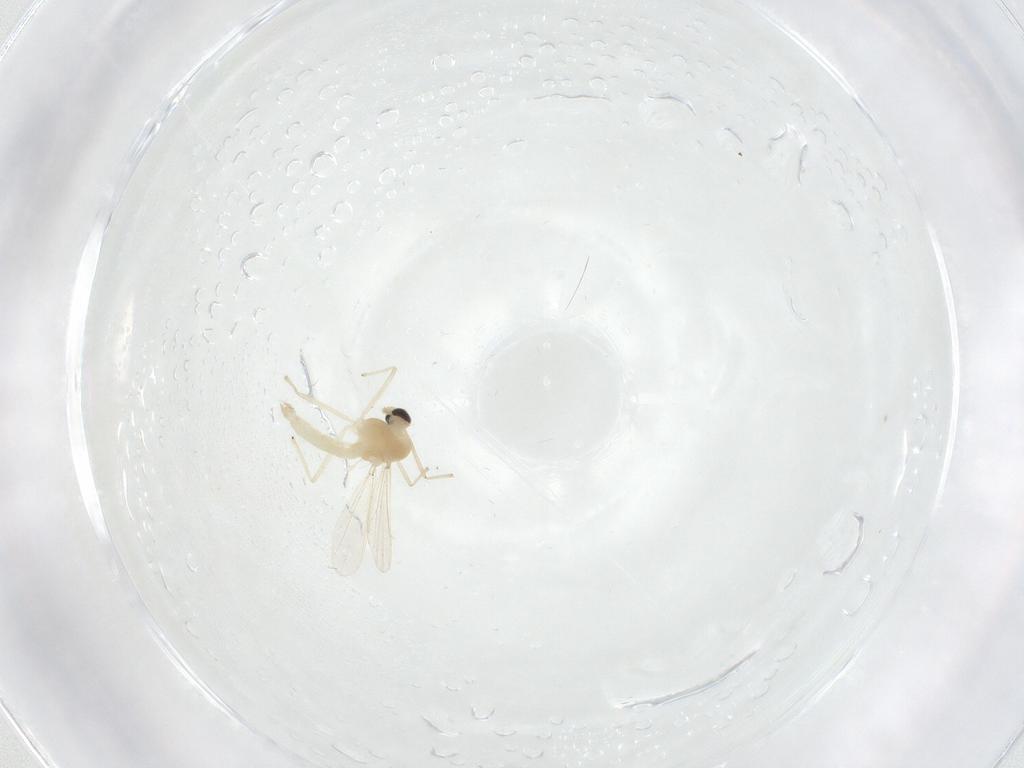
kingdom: Animalia
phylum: Arthropoda
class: Insecta
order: Diptera
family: Chironomidae
